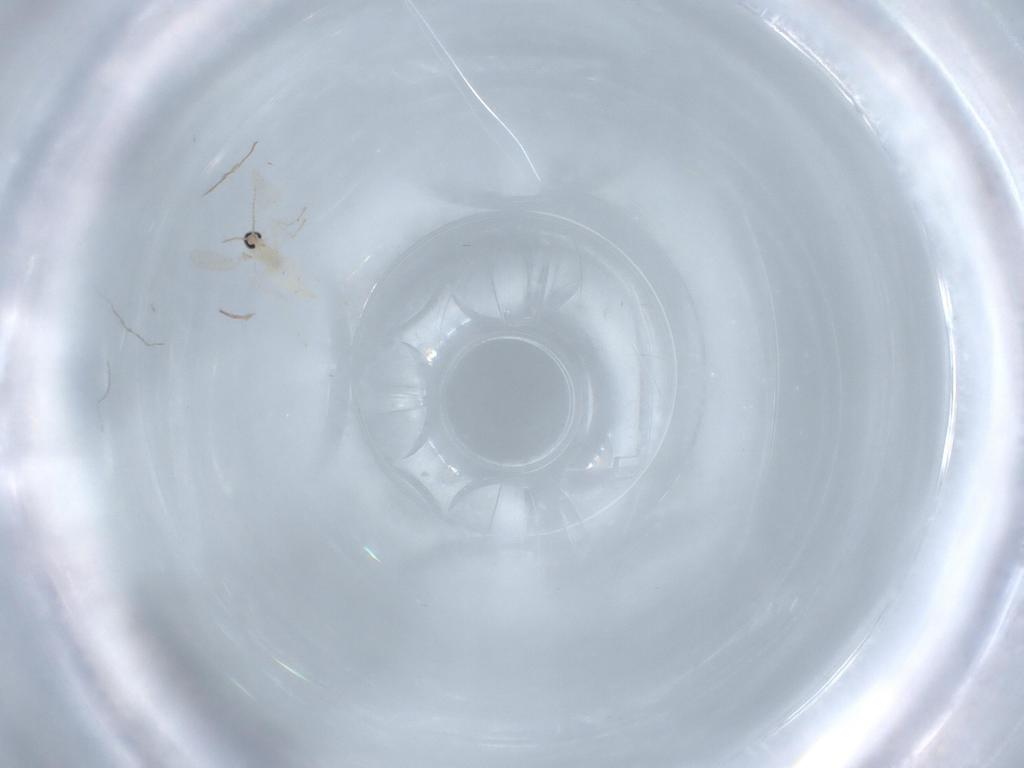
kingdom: Animalia
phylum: Arthropoda
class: Insecta
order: Diptera
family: Cecidomyiidae
